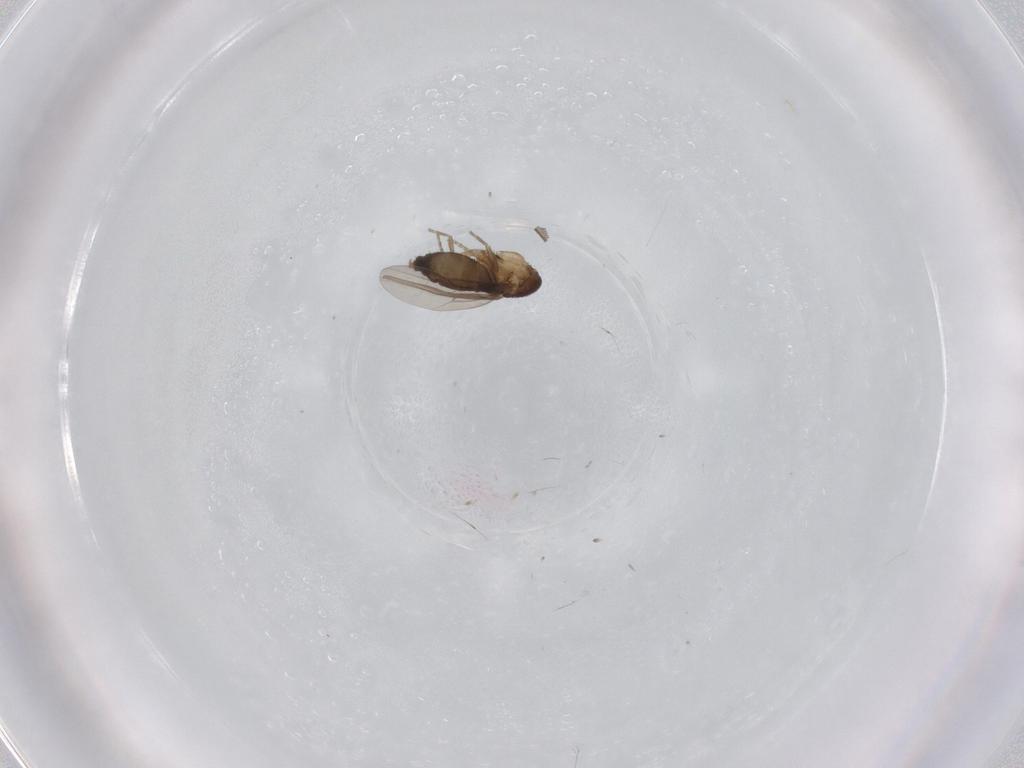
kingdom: Animalia
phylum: Arthropoda
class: Insecta
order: Diptera
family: Phoridae
